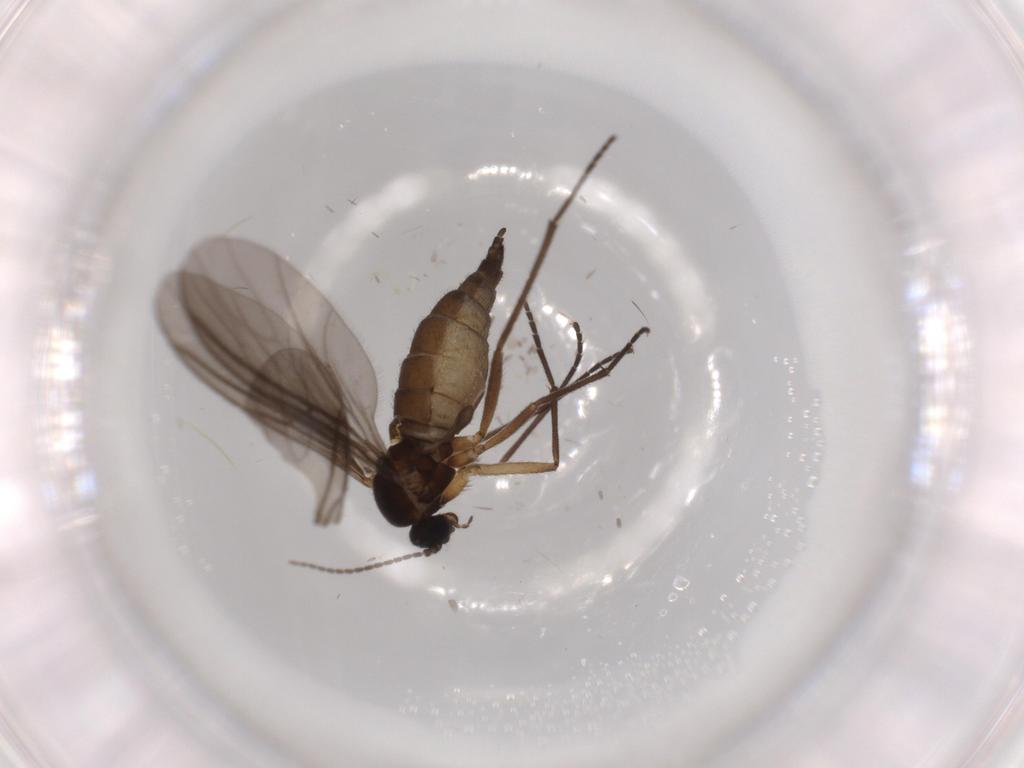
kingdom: Animalia
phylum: Arthropoda
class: Insecta
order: Diptera
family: Sciaridae
